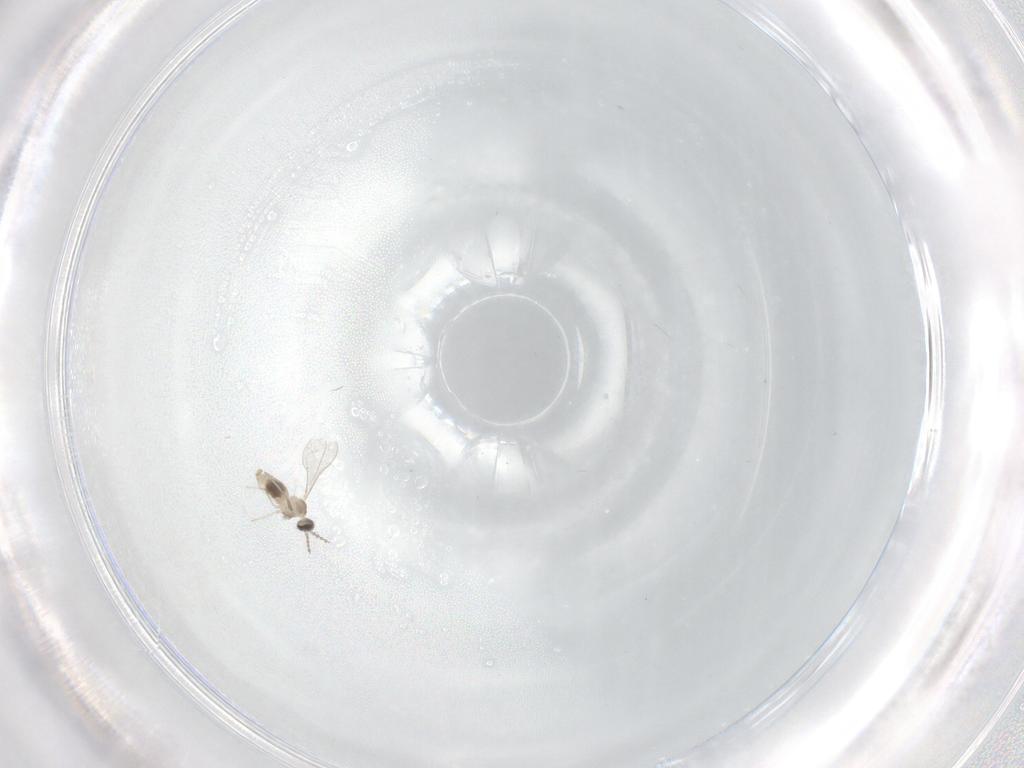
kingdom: Animalia
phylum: Arthropoda
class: Insecta
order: Diptera
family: Cecidomyiidae
